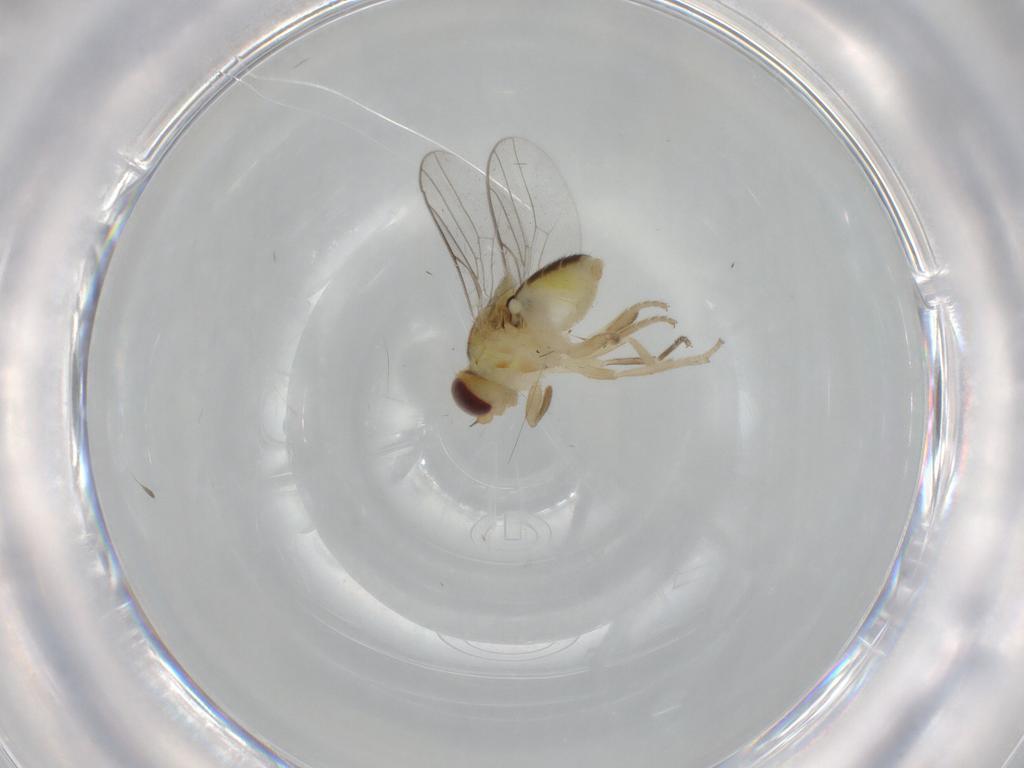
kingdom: Animalia
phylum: Arthropoda
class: Insecta
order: Diptera
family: Chloropidae
